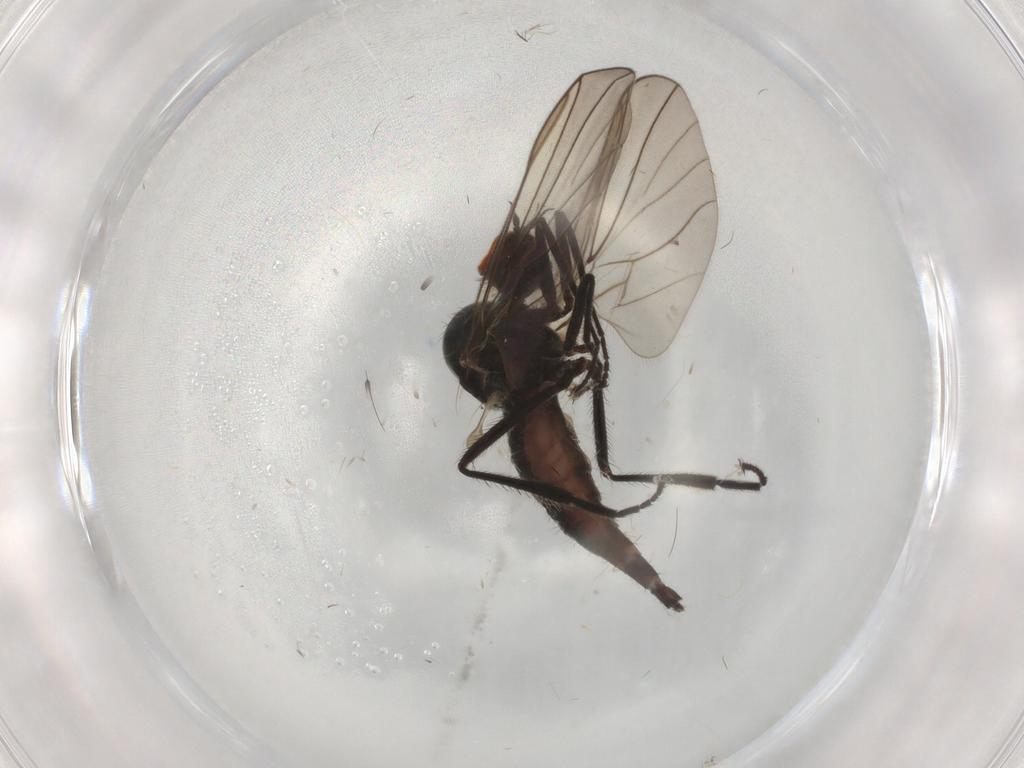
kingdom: Animalia
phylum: Arthropoda
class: Insecta
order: Diptera
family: Hybotidae
